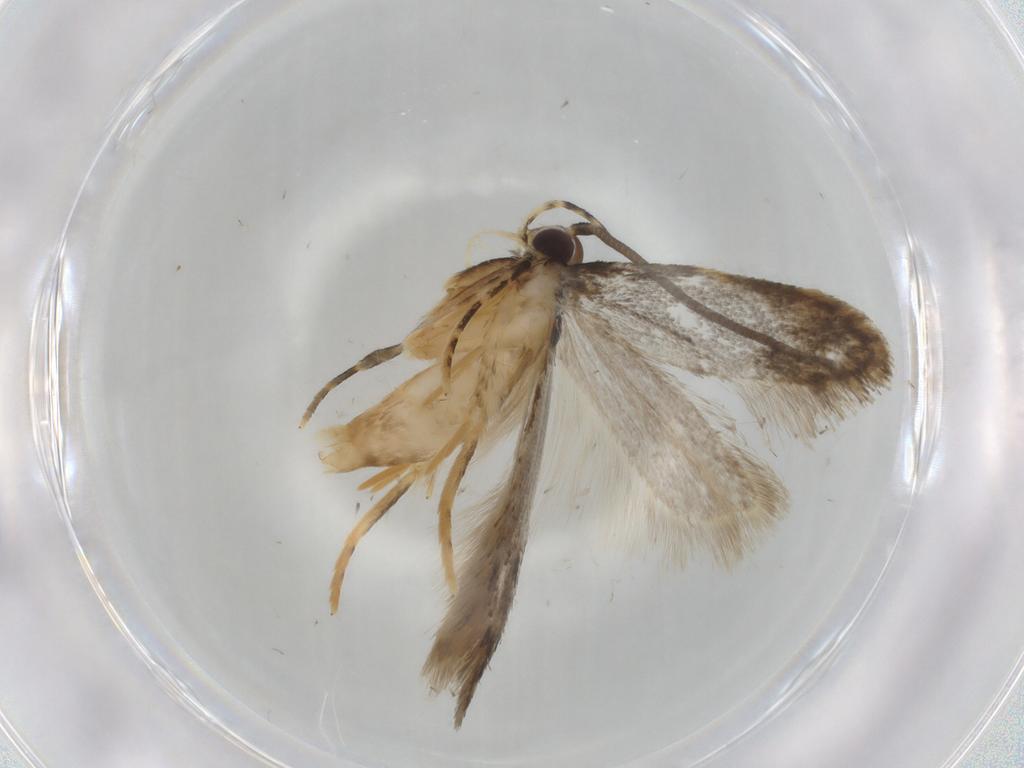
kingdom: Animalia
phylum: Arthropoda
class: Insecta
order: Lepidoptera
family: Autostichidae
